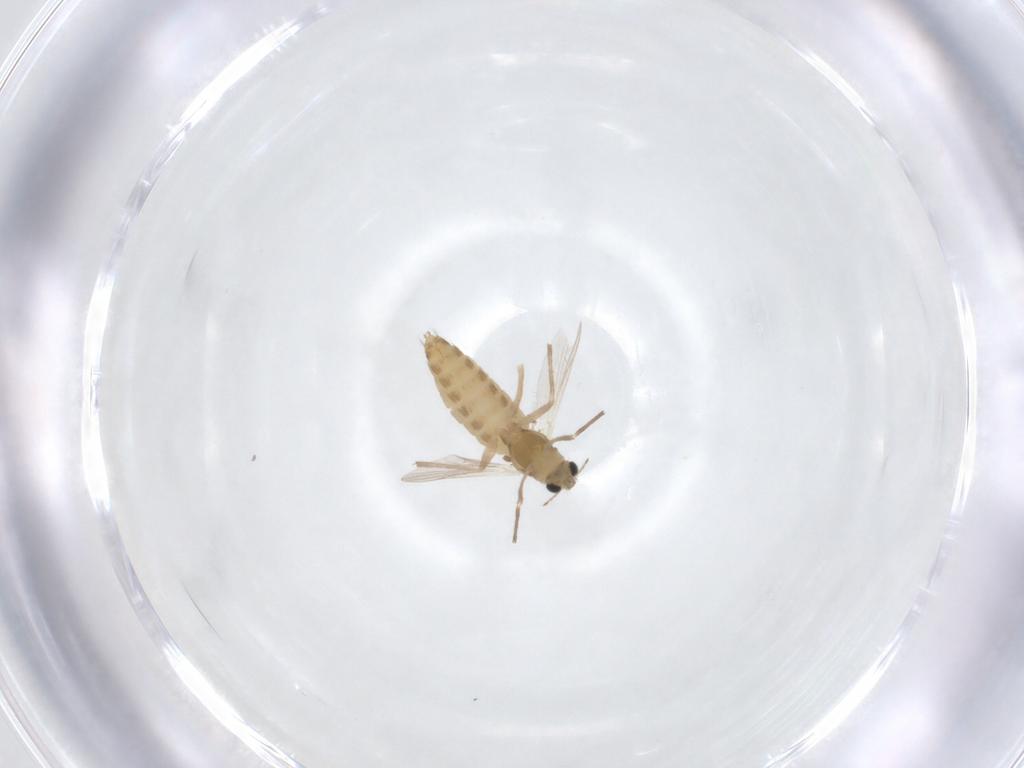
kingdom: Animalia
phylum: Arthropoda
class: Insecta
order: Diptera
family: Chironomidae
